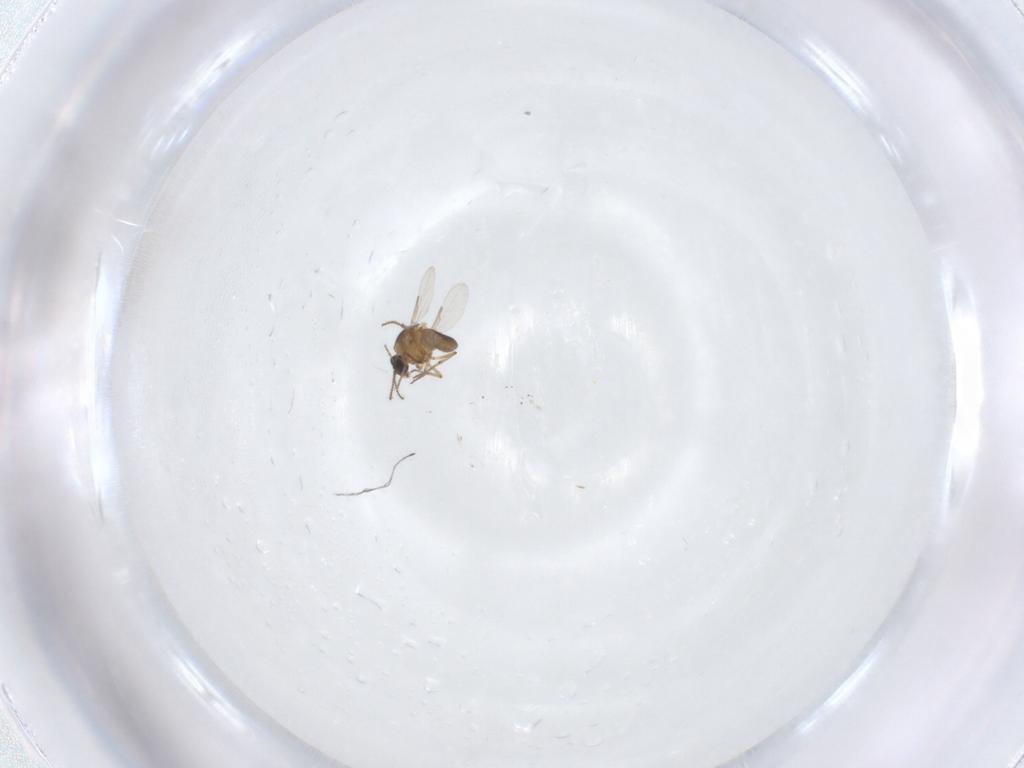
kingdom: Animalia
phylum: Arthropoda
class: Insecta
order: Diptera
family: Ceratopogonidae
